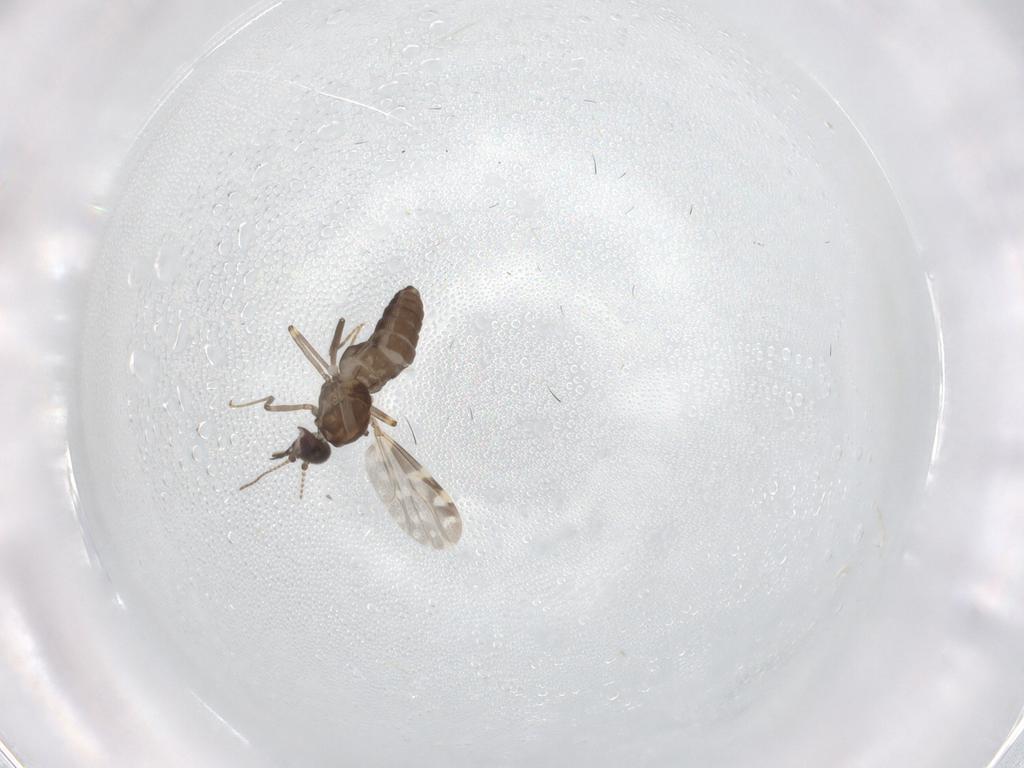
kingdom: Animalia
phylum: Arthropoda
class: Insecta
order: Diptera
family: Ceratopogonidae
